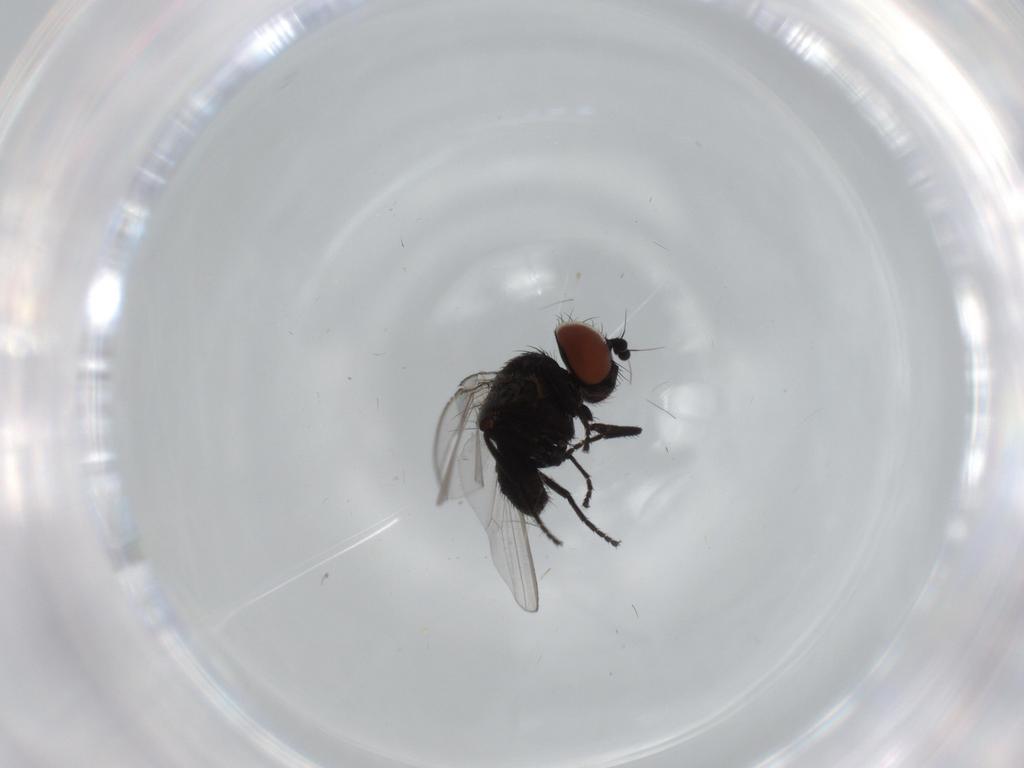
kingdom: Animalia
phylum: Arthropoda
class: Insecta
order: Diptera
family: Milichiidae
